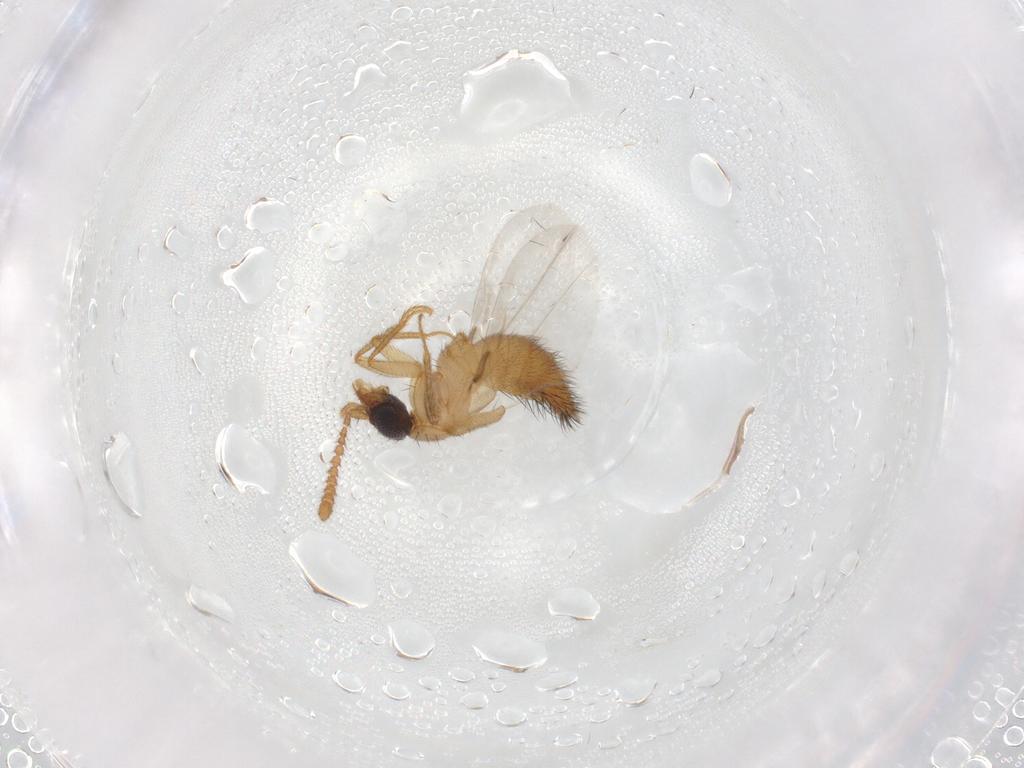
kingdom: Animalia
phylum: Arthropoda
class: Insecta
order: Coleoptera
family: Staphylinidae
